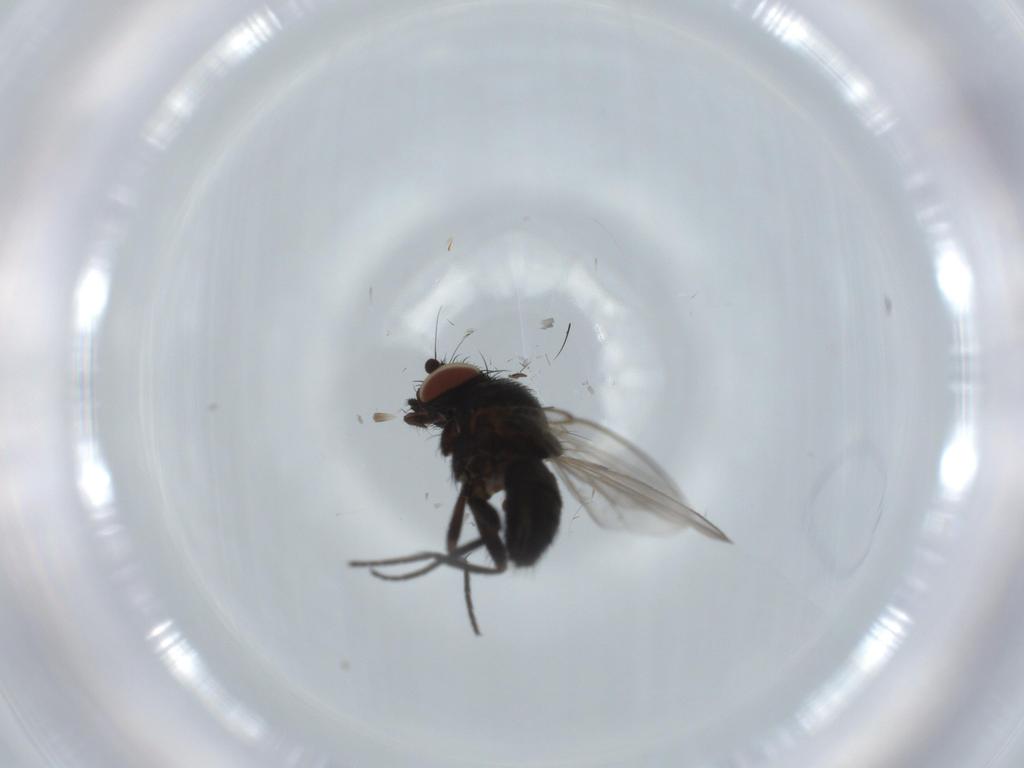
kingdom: Animalia
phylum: Arthropoda
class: Insecta
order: Diptera
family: Milichiidae
